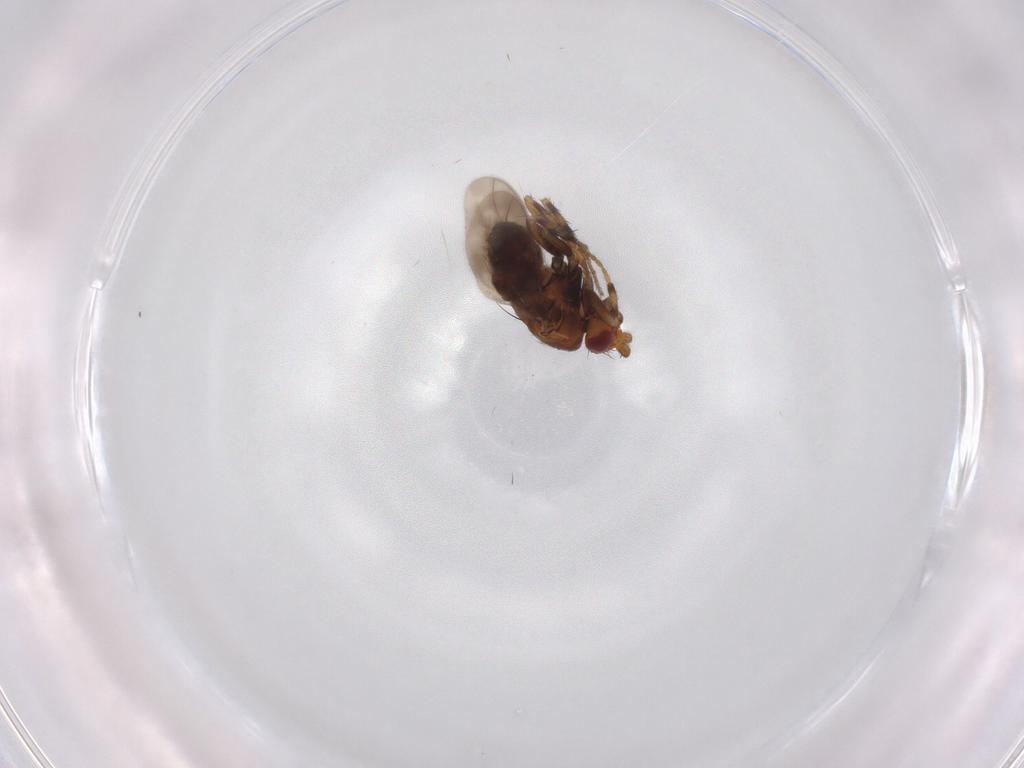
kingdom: Animalia
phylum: Arthropoda
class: Insecta
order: Diptera
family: Sphaeroceridae
